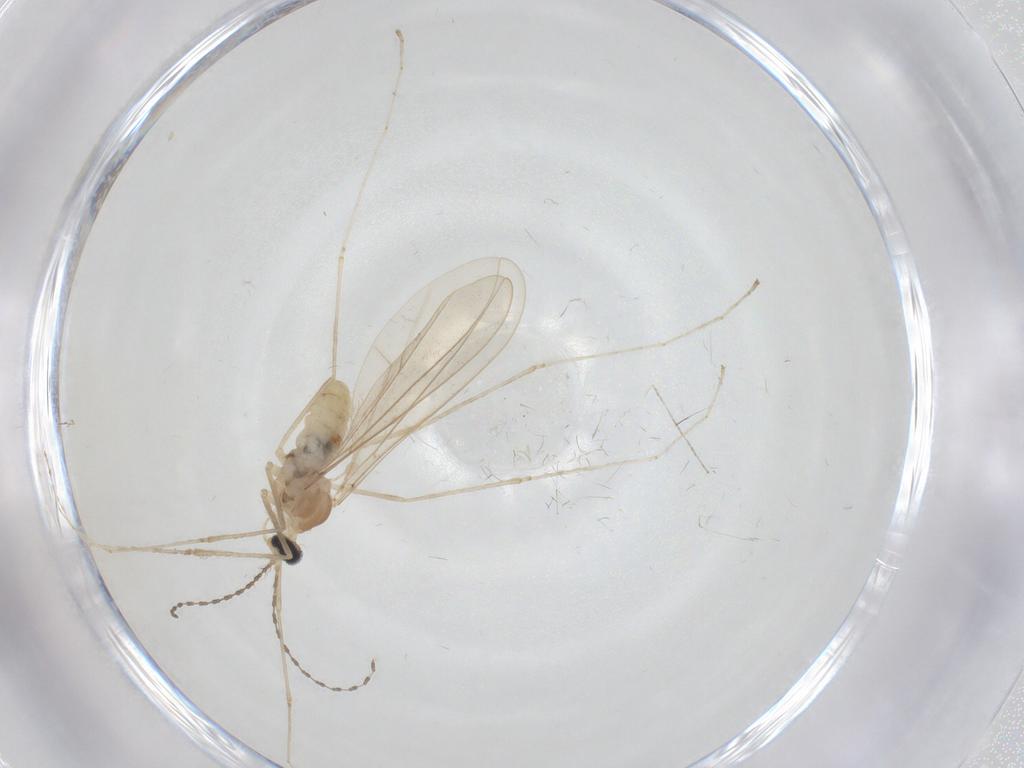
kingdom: Animalia
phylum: Arthropoda
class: Insecta
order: Diptera
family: Cecidomyiidae
